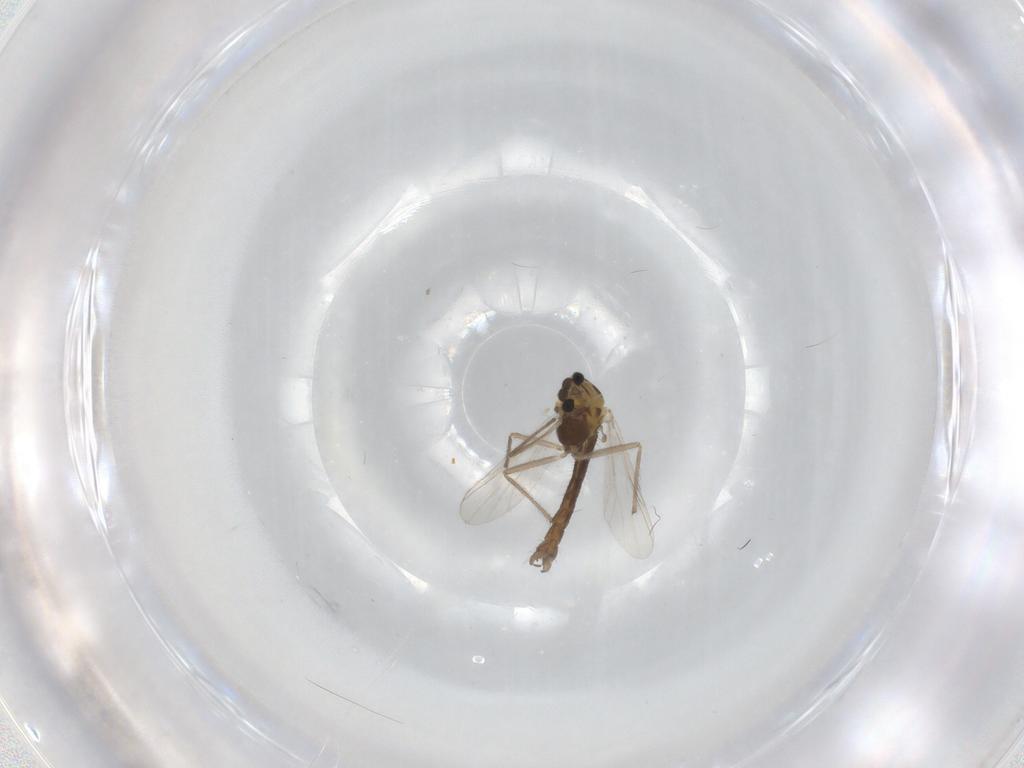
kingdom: Animalia
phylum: Arthropoda
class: Insecta
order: Diptera
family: Chironomidae
